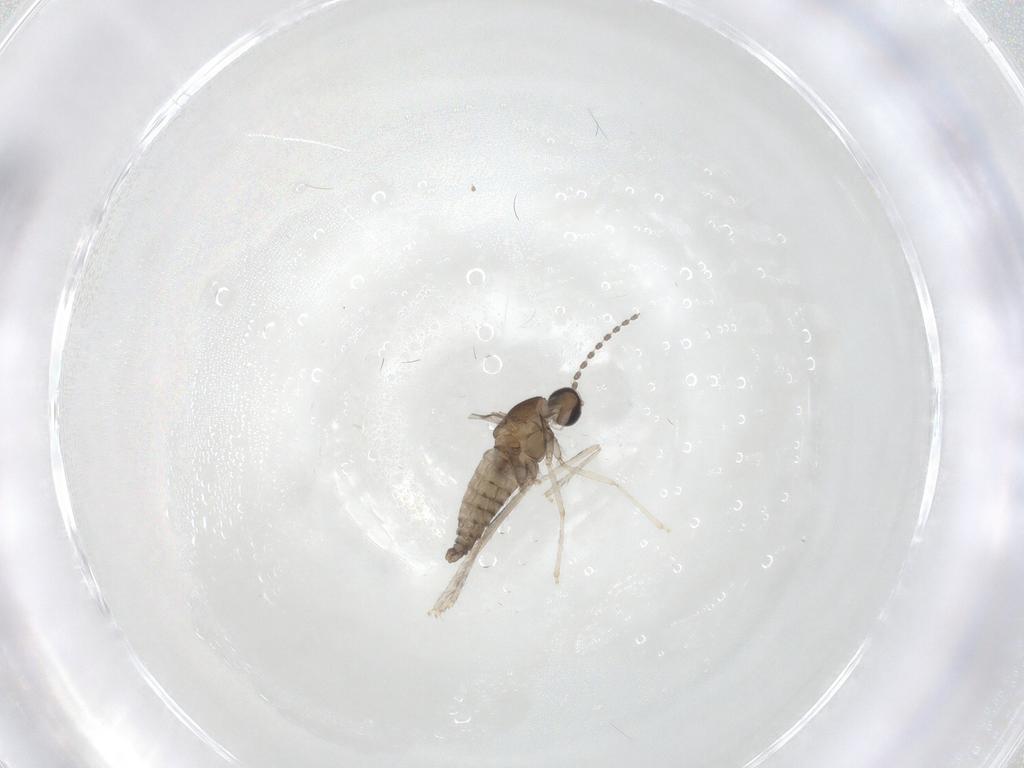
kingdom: Animalia
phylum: Arthropoda
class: Insecta
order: Diptera
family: Cecidomyiidae
